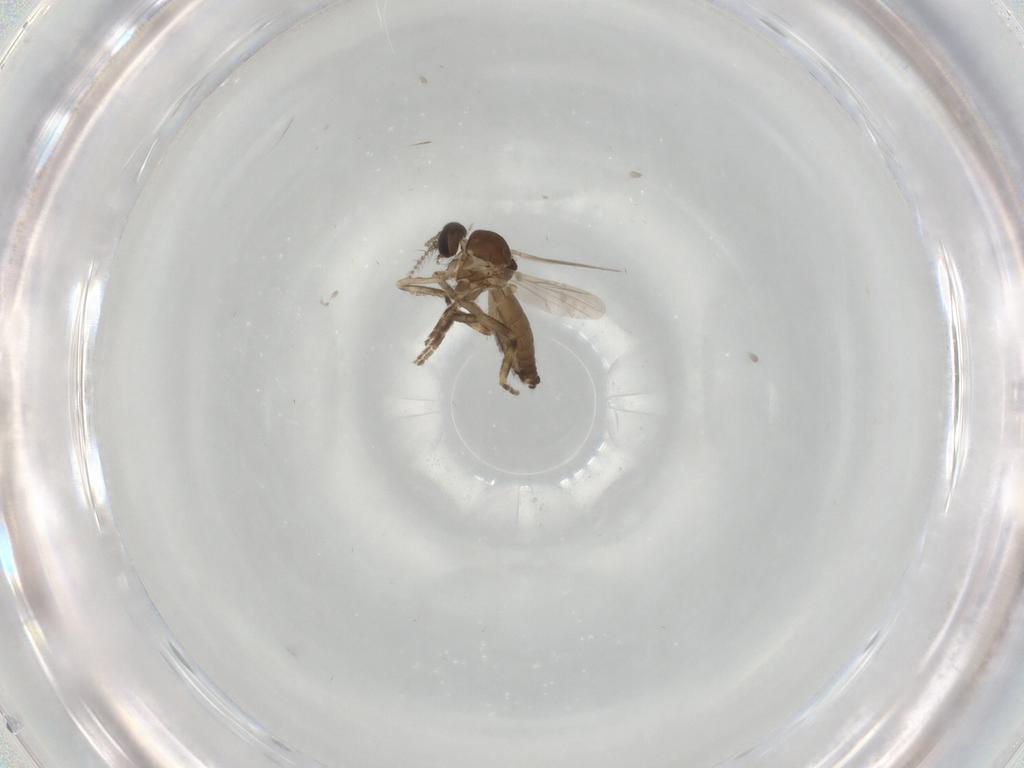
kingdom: Animalia
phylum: Arthropoda
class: Insecta
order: Diptera
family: Ceratopogonidae
